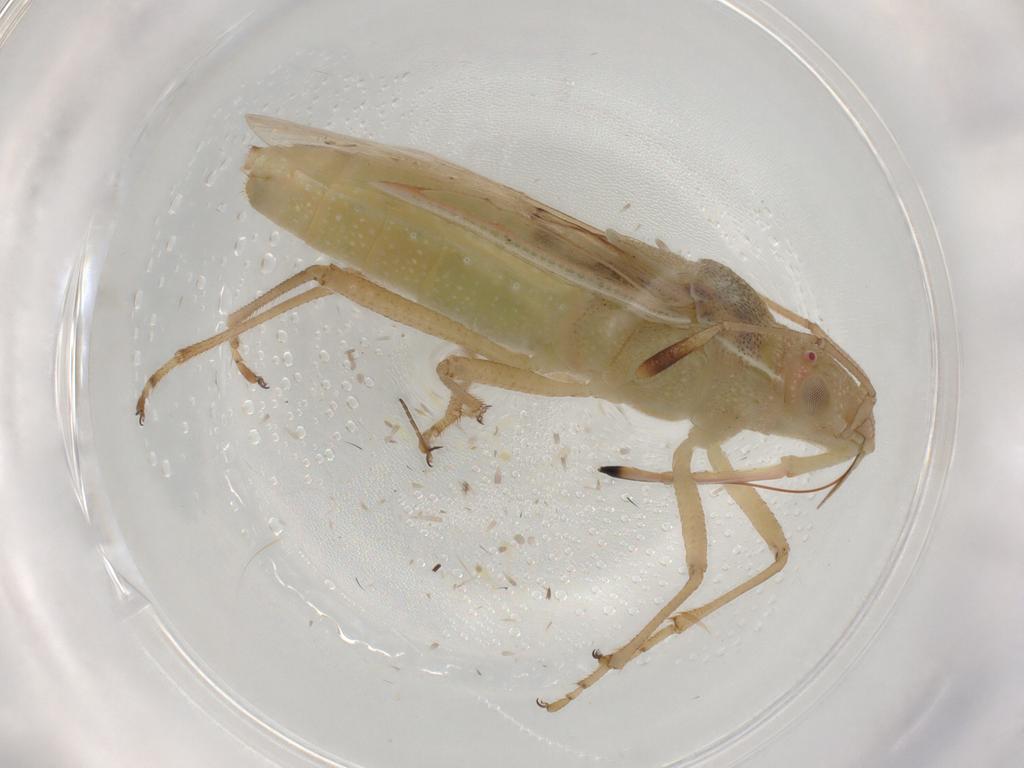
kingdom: Animalia
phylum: Arthropoda
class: Insecta
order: Hemiptera
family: Rhopalidae
